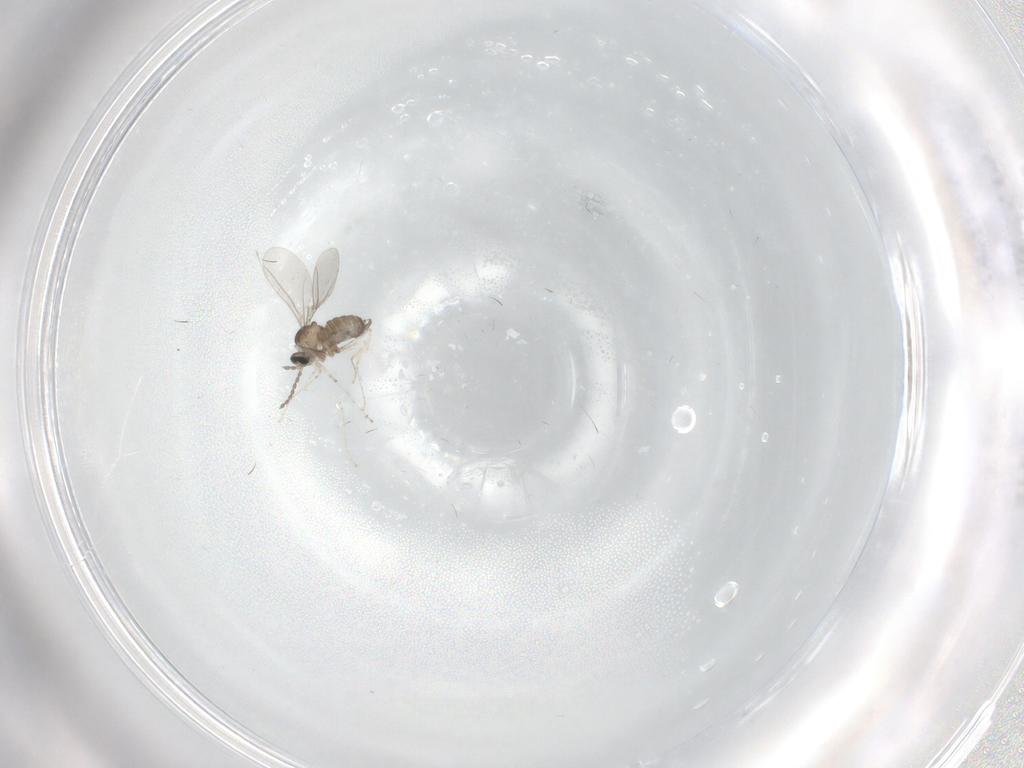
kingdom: Animalia
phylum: Arthropoda
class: Insecta
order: Diptera
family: Cecidomyiidae
